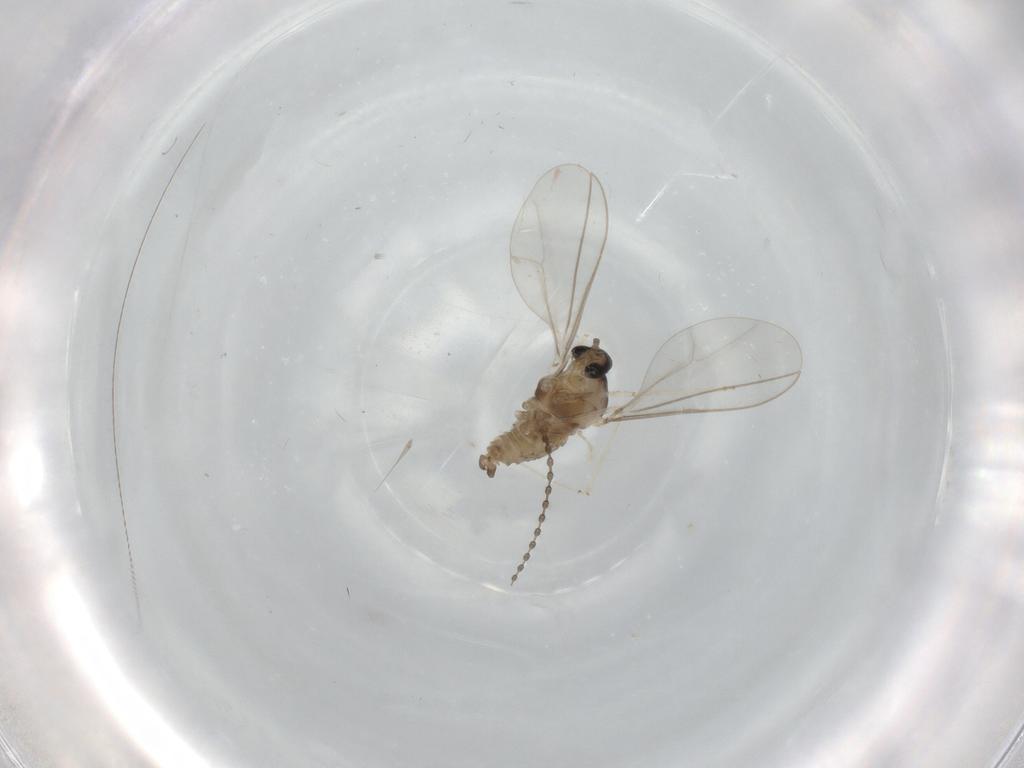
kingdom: Animalia
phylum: Arthropoda
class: Insecta
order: Diptera
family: Cecidomyiidae
